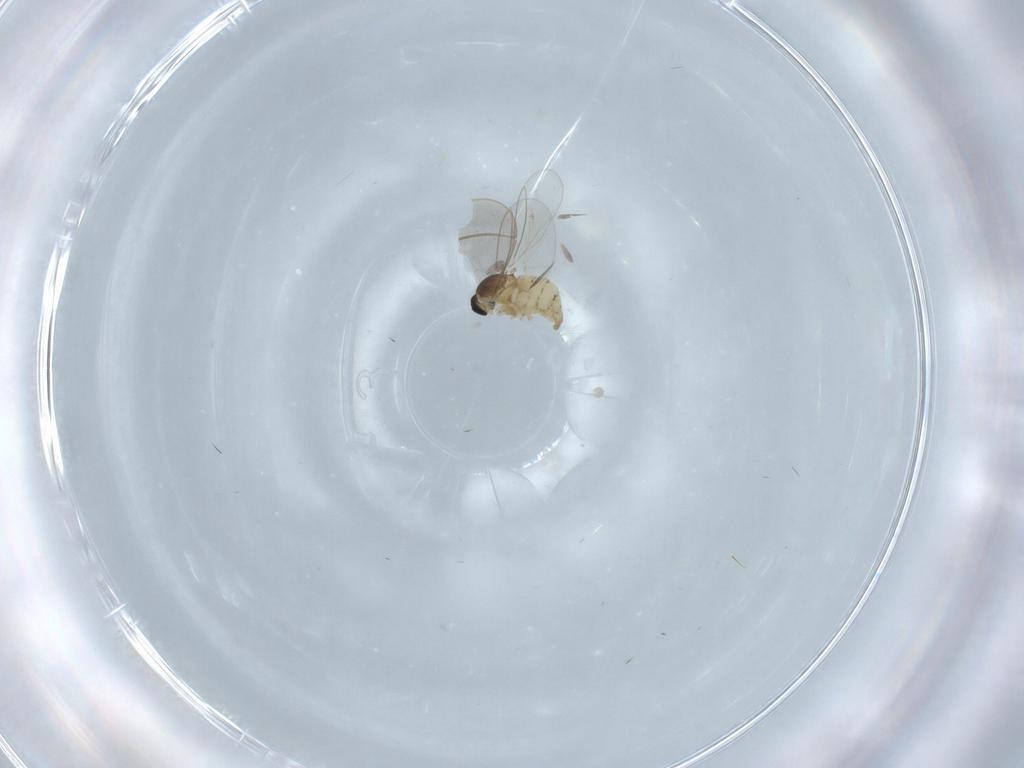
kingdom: Animalia
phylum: Arthropoda
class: Insecta
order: Diptera
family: Cecidomyiidae
